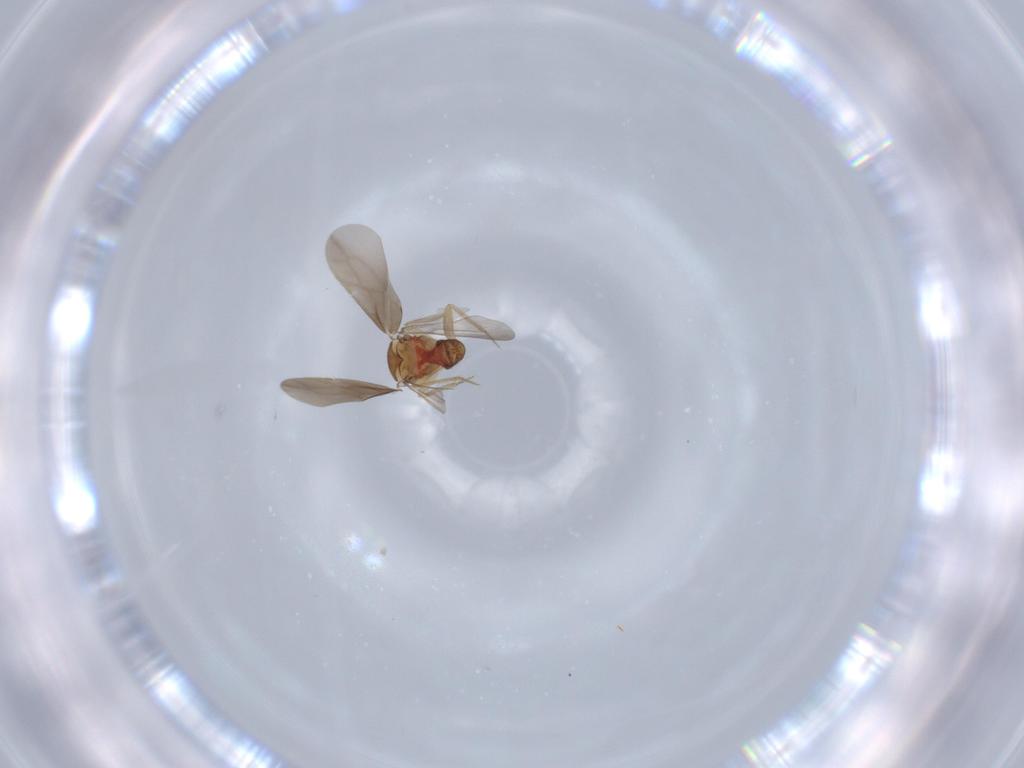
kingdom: Animalia
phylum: Arthropoda
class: Insecta
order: Hemiptera
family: Ceratocombidae
